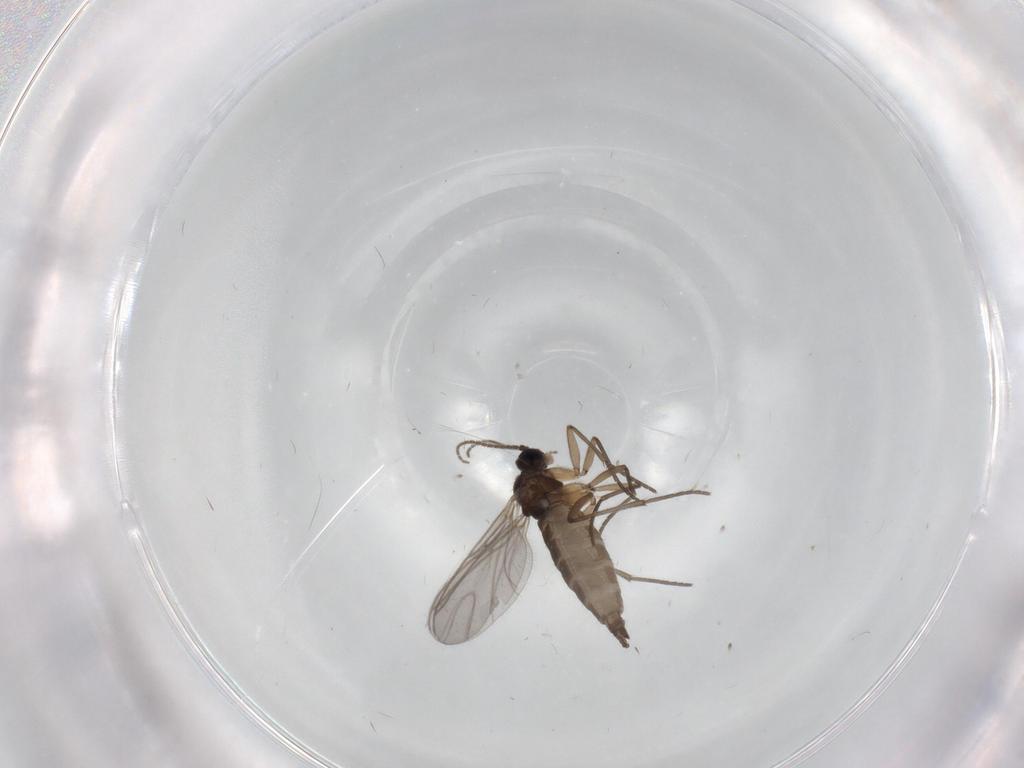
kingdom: Animalia
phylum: Arthropoda
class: Insecta
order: Diptera
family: Sciaridae
